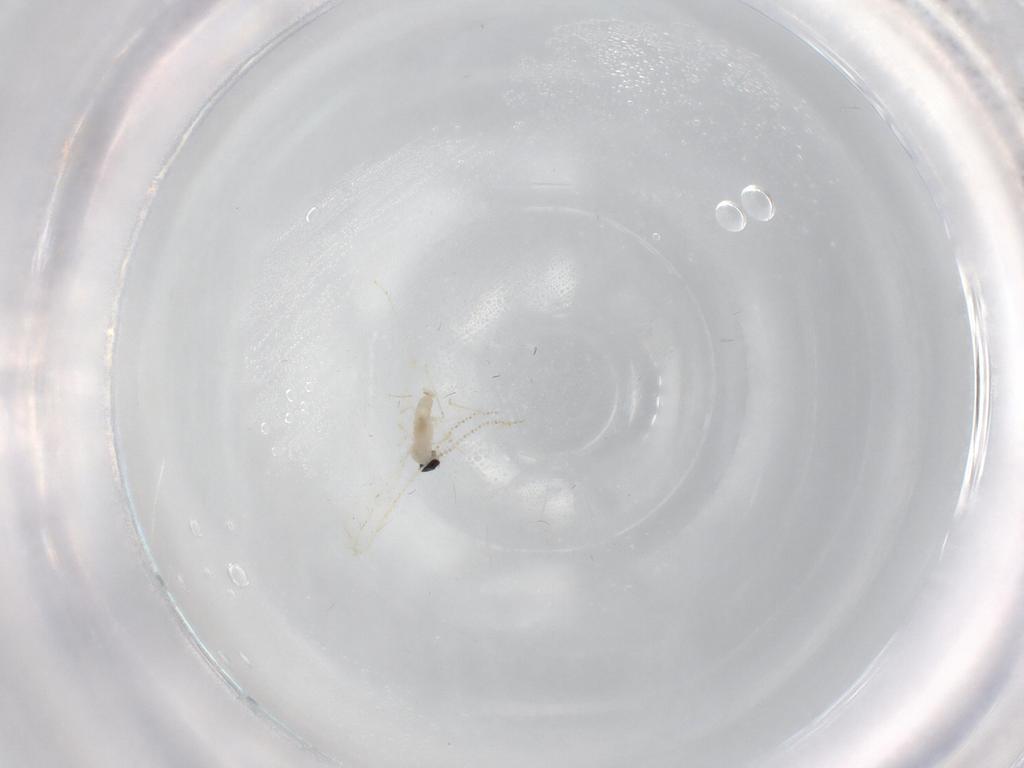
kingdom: Animalia
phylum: Arthropoda
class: Insecta
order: Diptera
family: Cecidomyiidae
